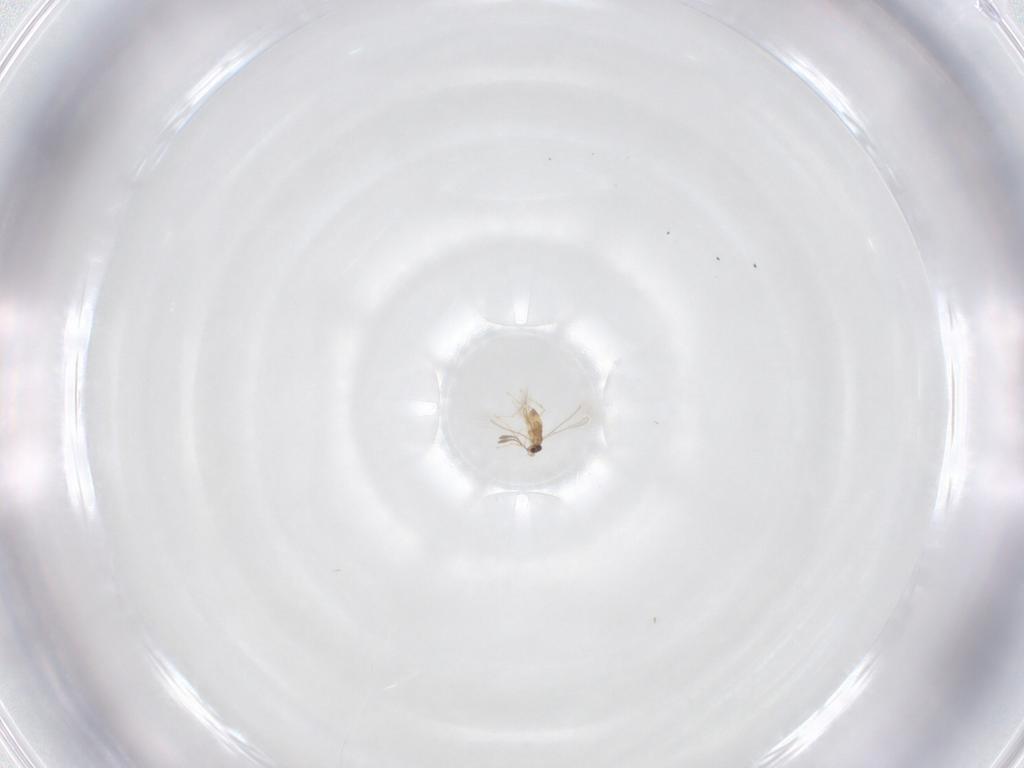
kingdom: Animalia
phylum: Arthropoda
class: Insecta
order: Hymenoptera
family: Mymaridae
